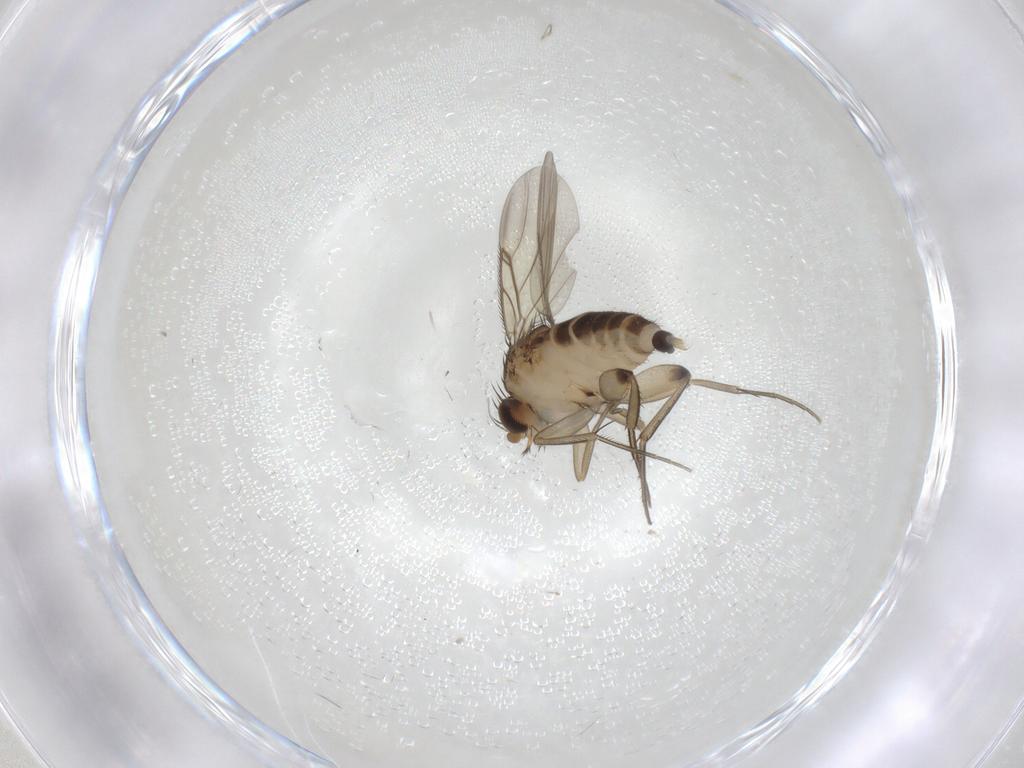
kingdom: Animalia
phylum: Arthropoda
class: Insecta
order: Diptera
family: Phoridae
